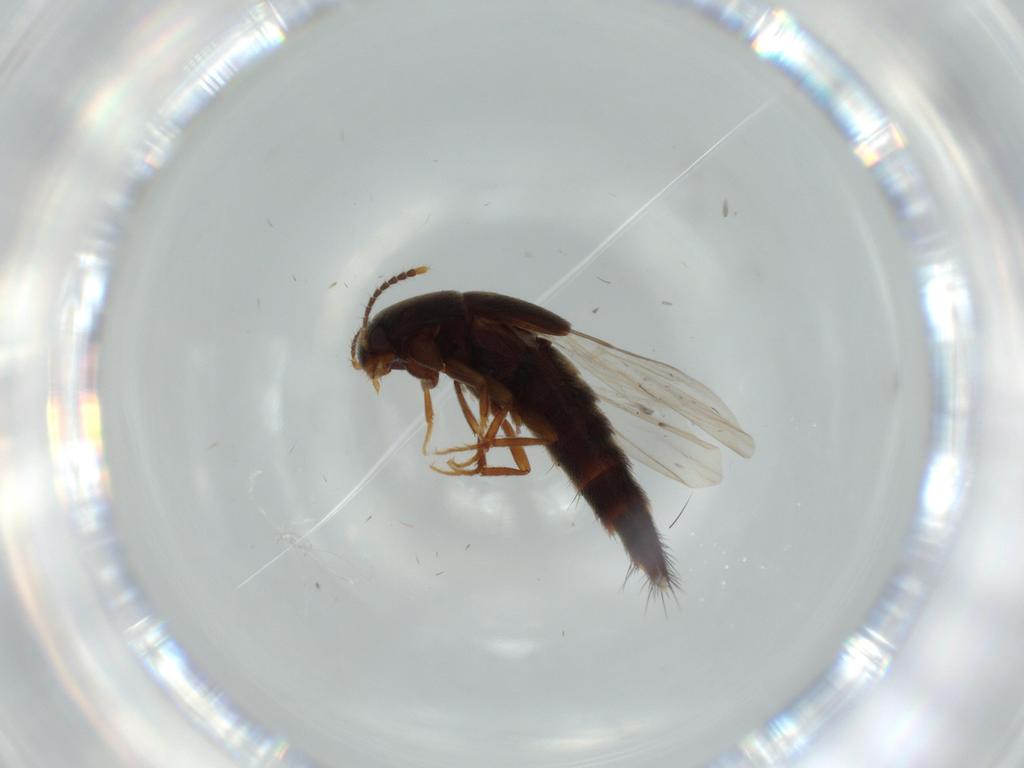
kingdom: Animalia
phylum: Arthropoda
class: Insecta
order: Coleoptera
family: Staphylinidae
